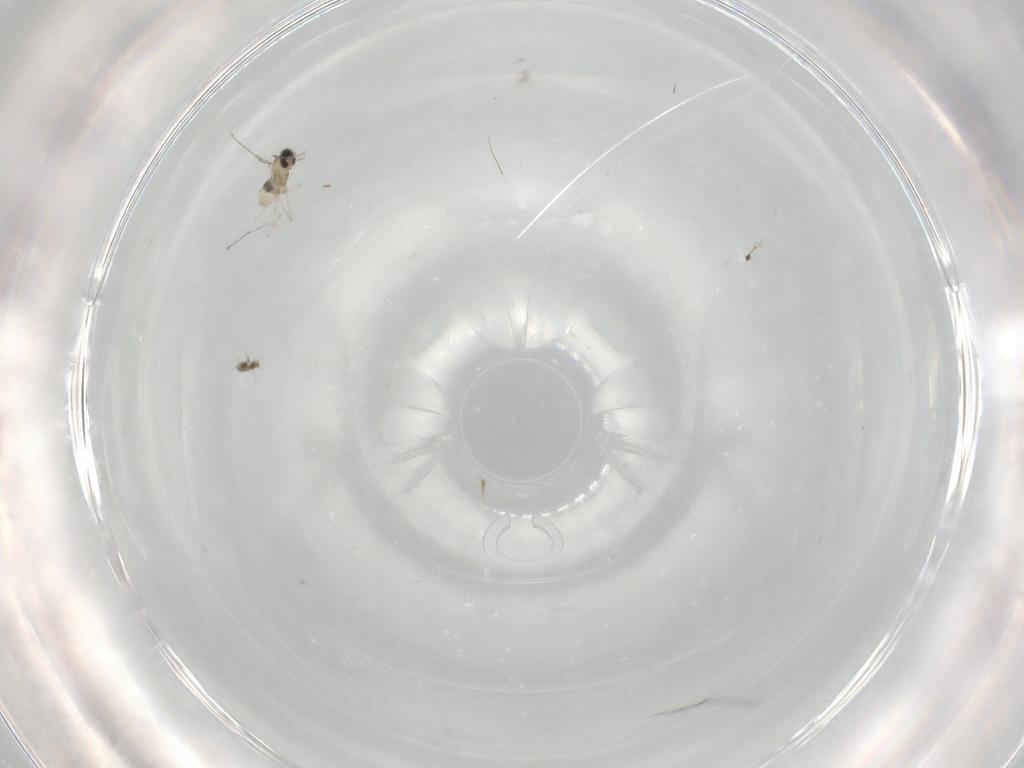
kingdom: Animalia
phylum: Arthropoda
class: Insecta
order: Diptera
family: Cecidomyiidae
